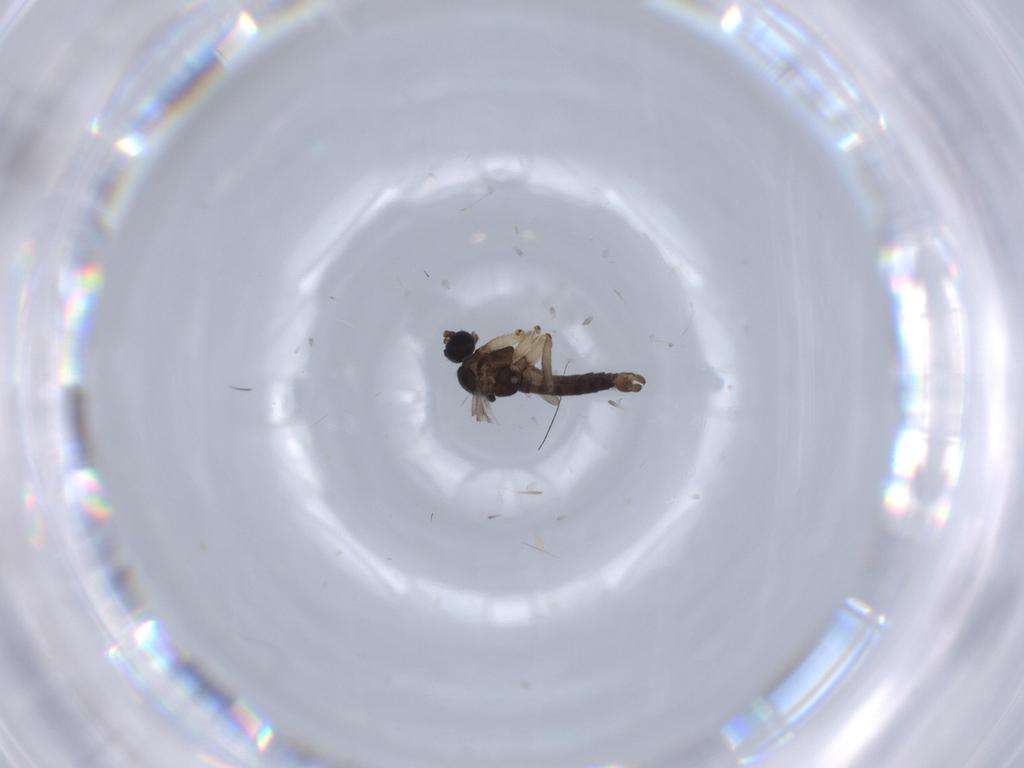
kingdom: Animalia
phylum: Arthropoda
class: Insecta
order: Diptera
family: Sciaridae
